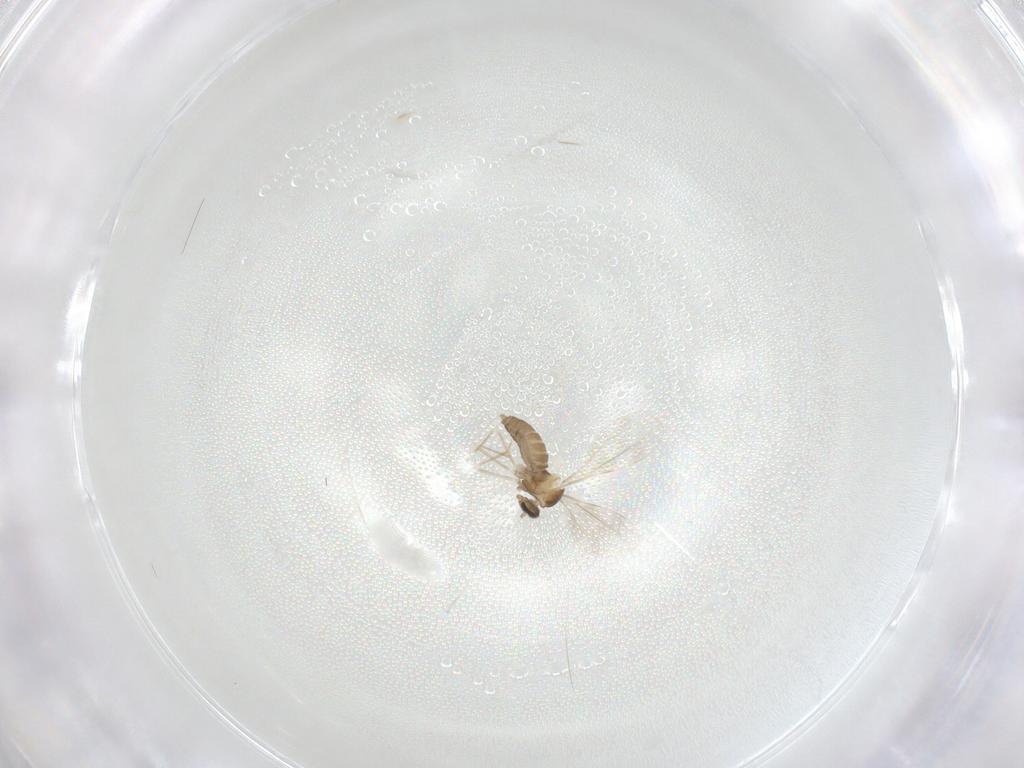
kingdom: Animalia
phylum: Arthropoda
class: Insecta
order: Diptera
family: Cecidomyiidae
